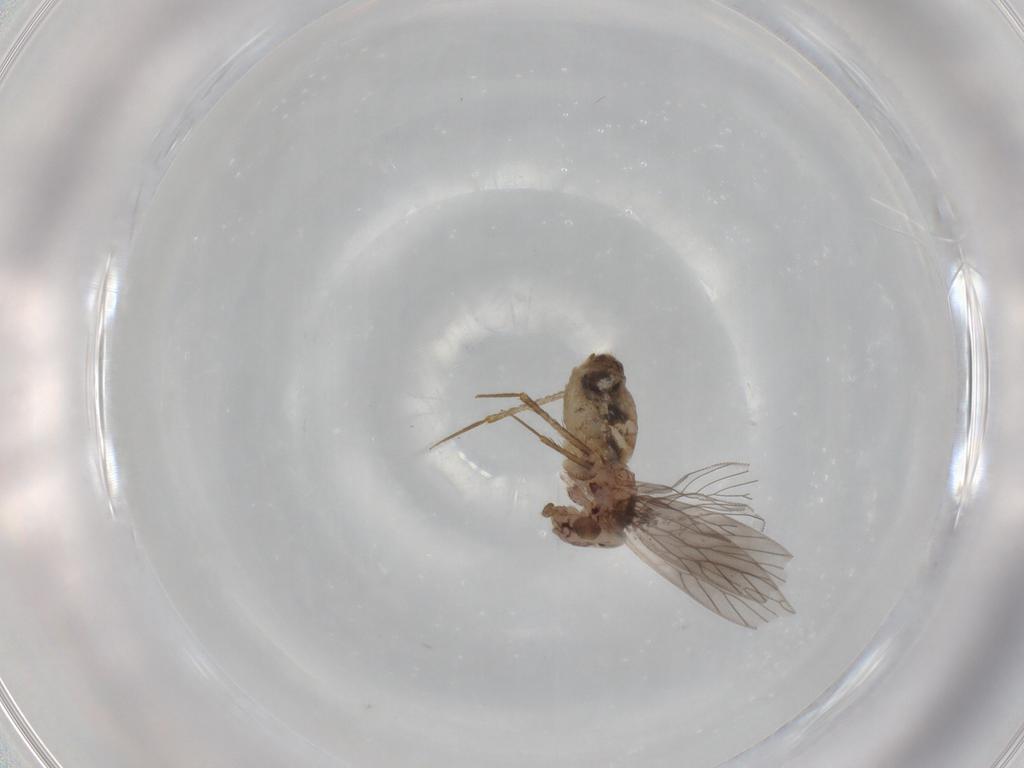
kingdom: Animalia
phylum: Arthropoda
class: Insecta
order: Psocodea
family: Lepidopsocidae
